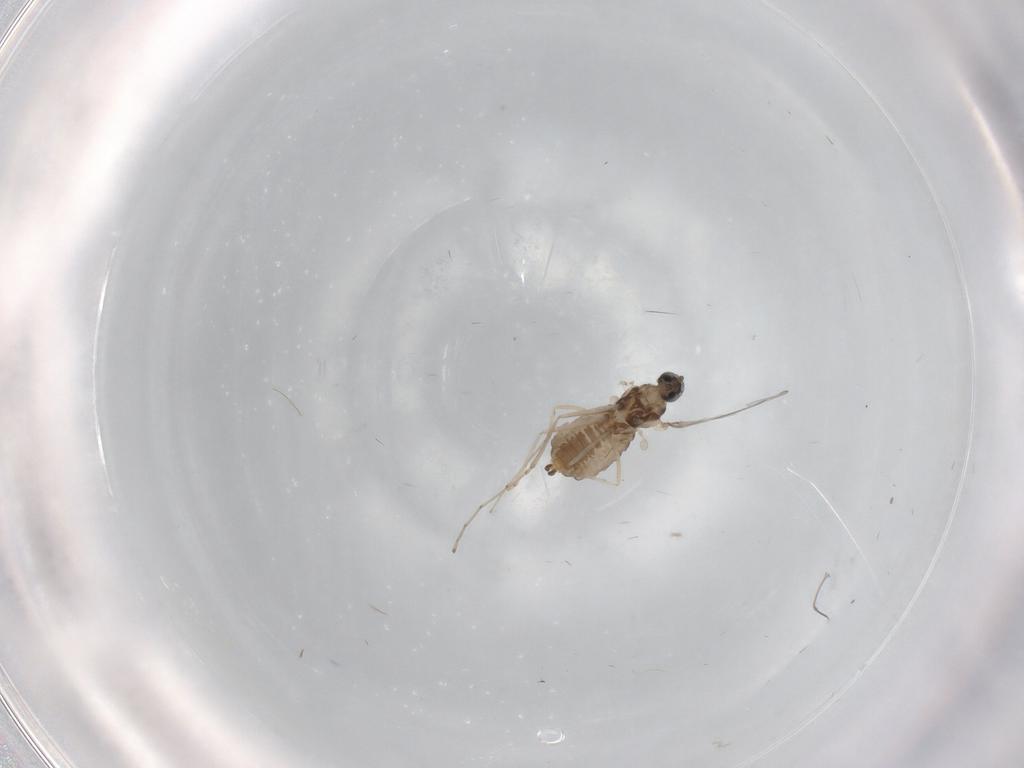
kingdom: Animalia
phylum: Arthropoda
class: Insecta
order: Diptera
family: Cecidomyiidae
